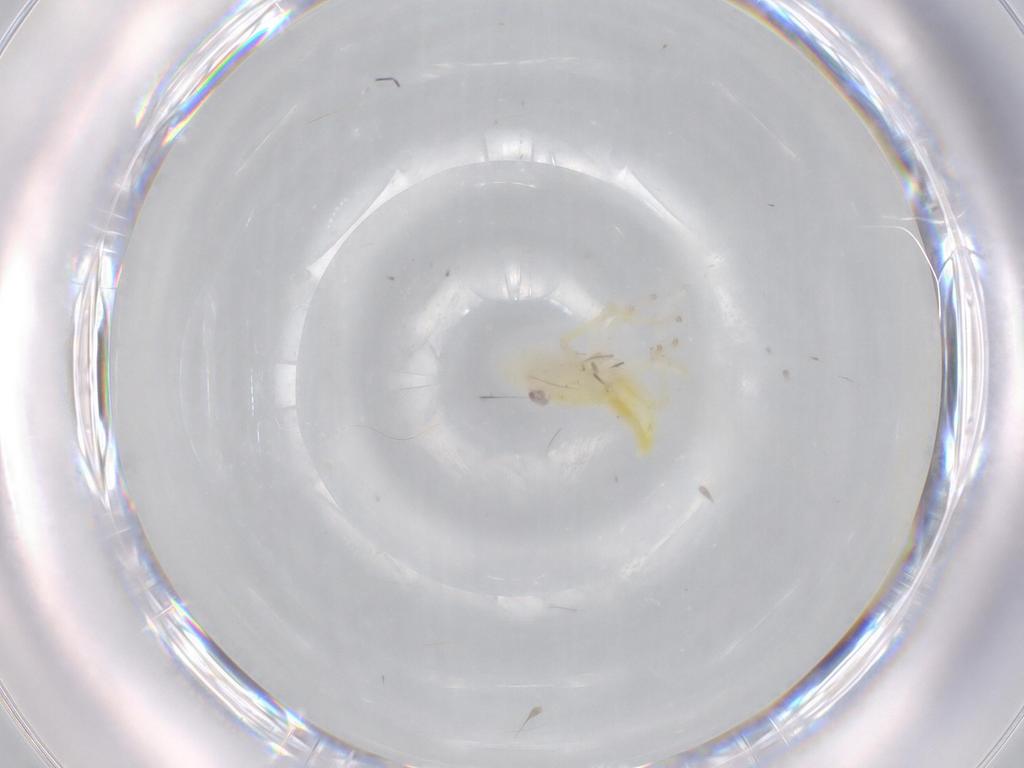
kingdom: Animalia
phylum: Arthropoda
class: Insecta
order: Hemiptera
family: Cicadellidae
